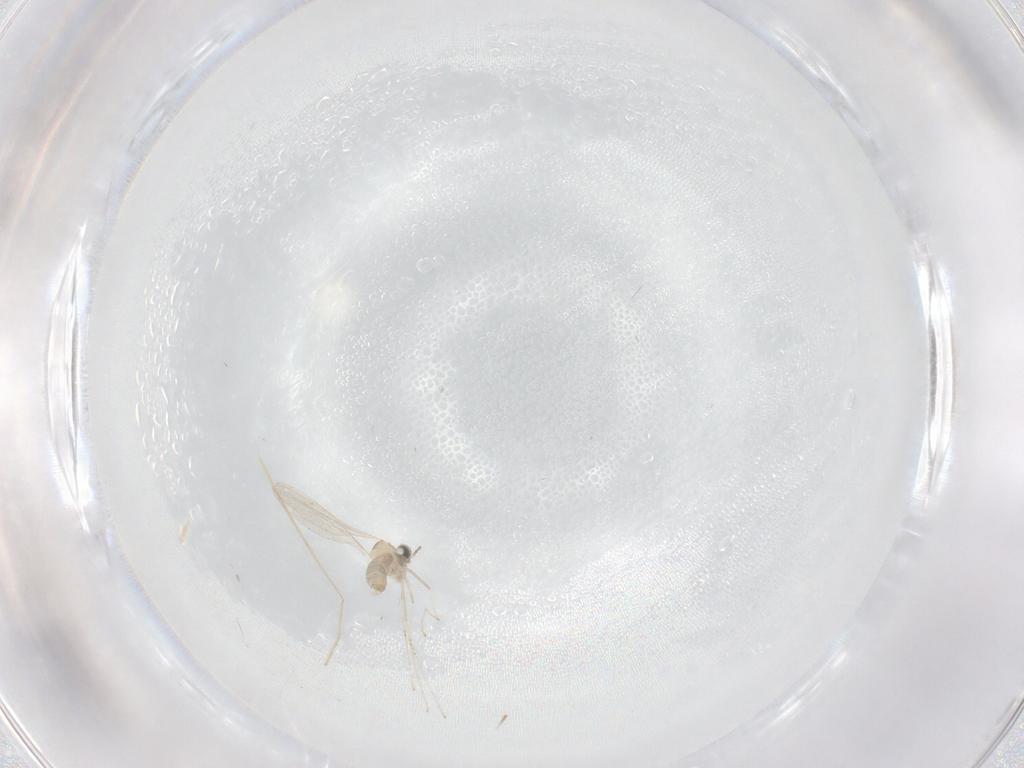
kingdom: Animalia
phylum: Arthropoda
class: Insecta
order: Diptera
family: Cecidomyiidae
